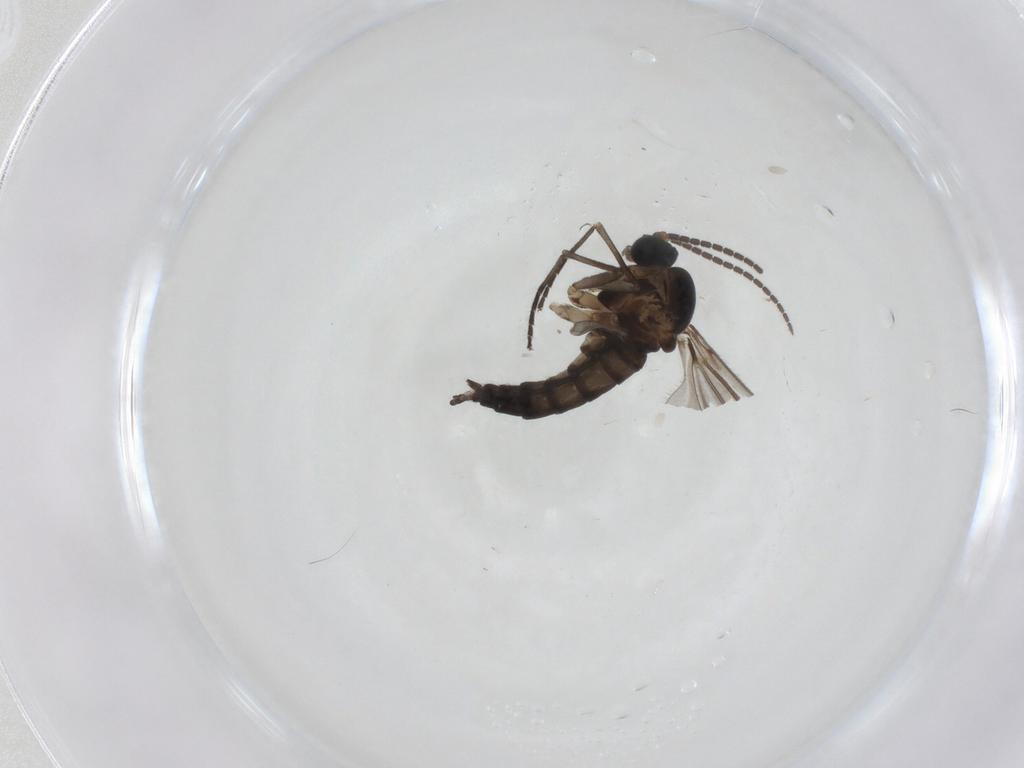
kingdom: Animalia
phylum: Arthropoda
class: Insecta
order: Diptera
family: Sciaridae
